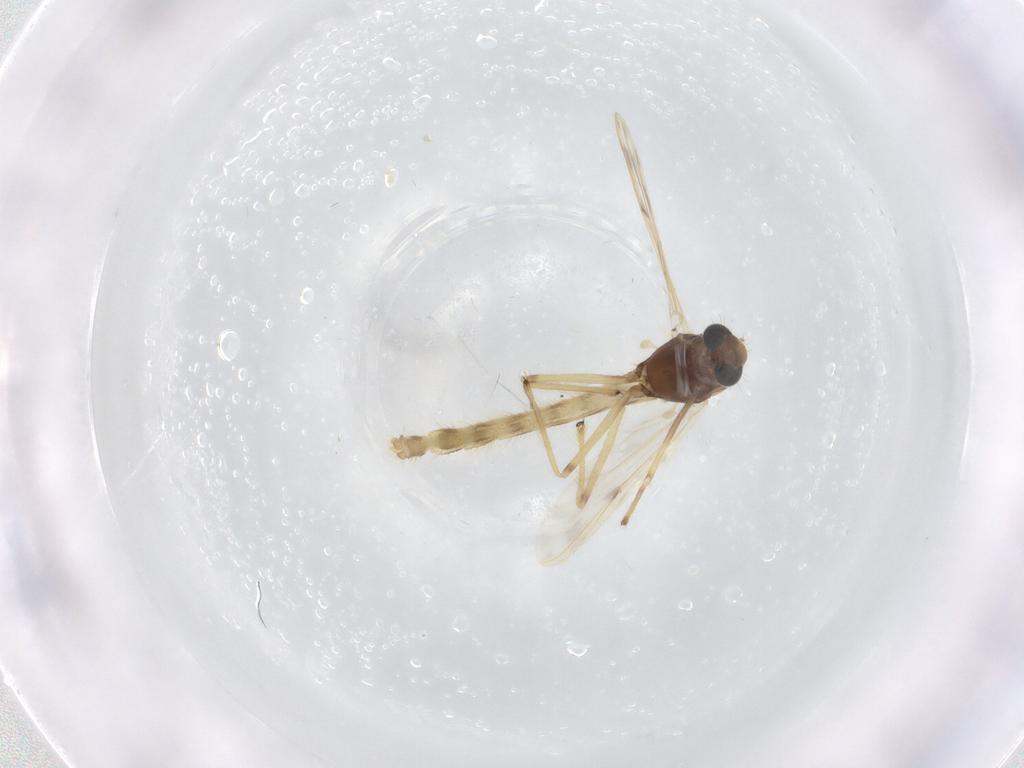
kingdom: Animalia
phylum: Arthropoda
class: Insecta
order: Diptera
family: Chironomidae
